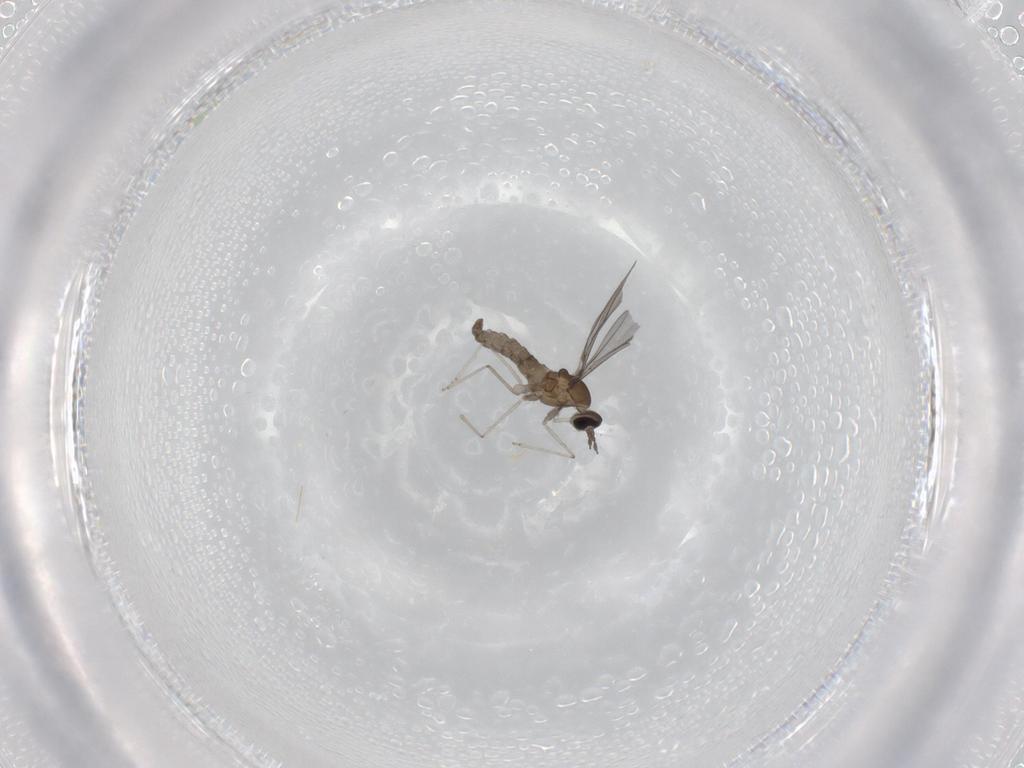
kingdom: Animalia
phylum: Arthropoda
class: Insecta
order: Diptera
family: Cecidomyiidae
